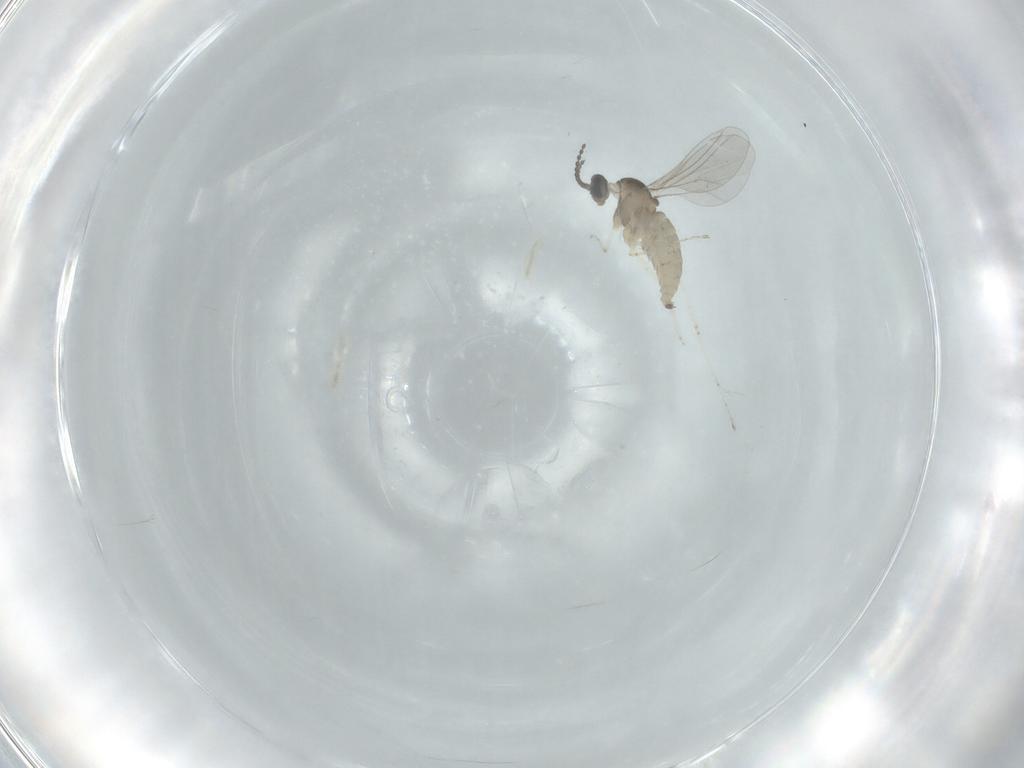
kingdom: Animalia
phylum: Arthropoda
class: Insecta
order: Diptera
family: Cecidomyiidae
